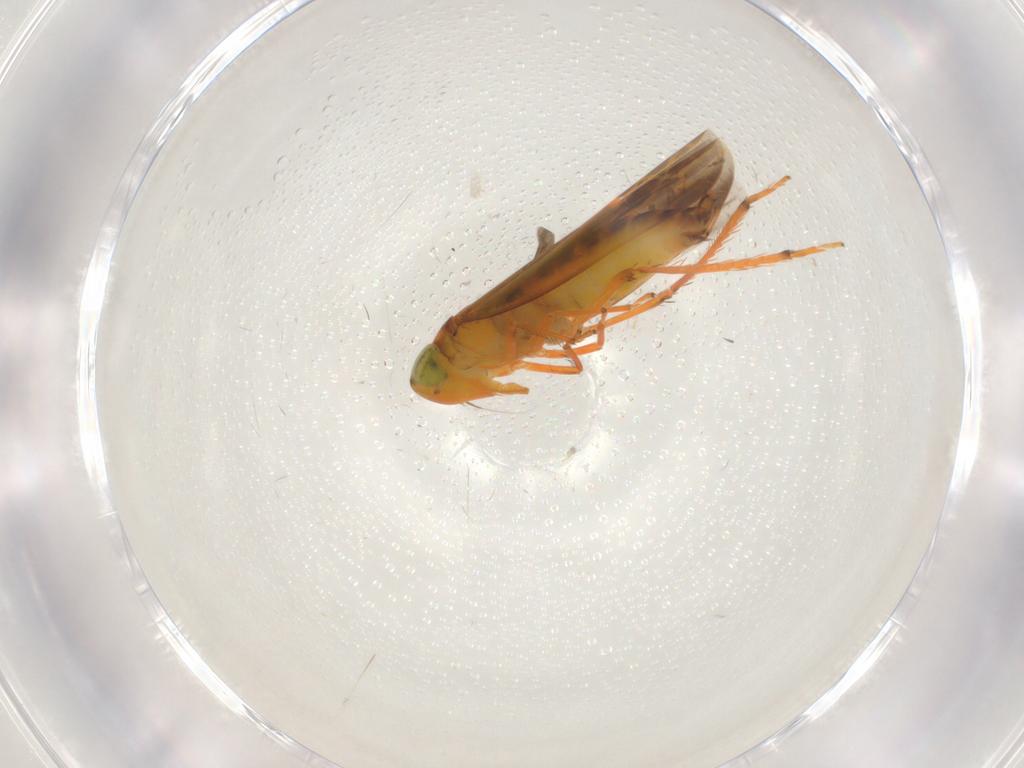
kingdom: Animalia
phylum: Arthropoda
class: Insecta
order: Hemiptera
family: Cicadellidae
